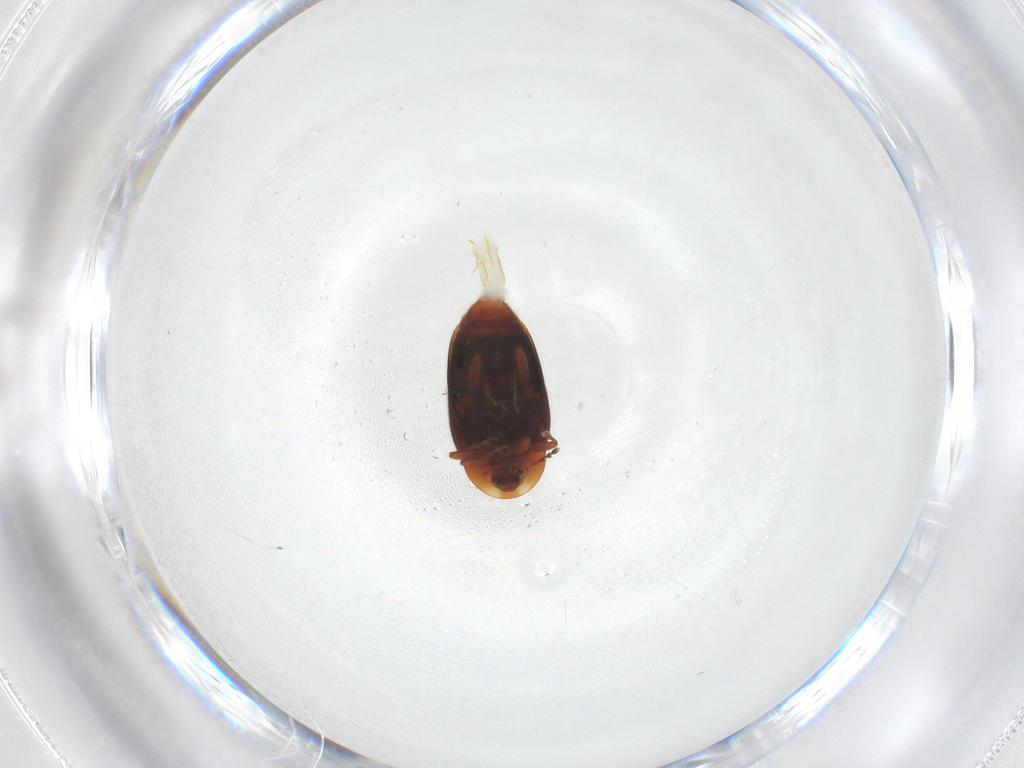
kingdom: Animalia
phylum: Arthropoda
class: Insecta
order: Coleoptera
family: Corylophidae
